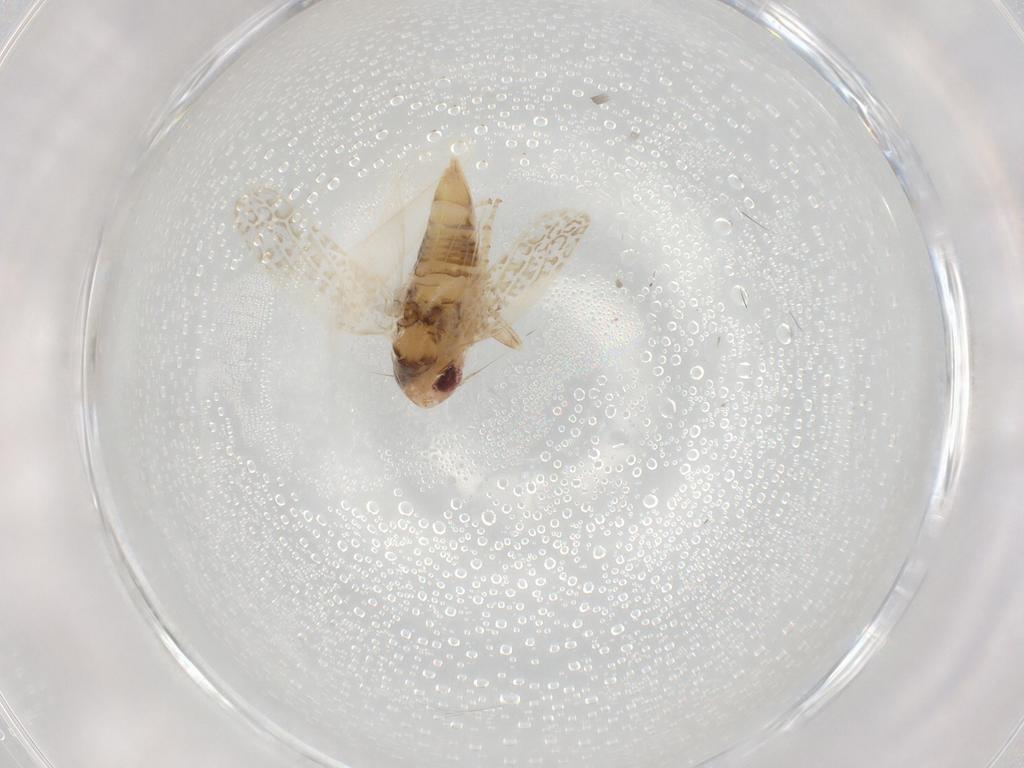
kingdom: Animalia
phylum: Arthropoda
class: Insecta
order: Hemiptera
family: Cicadellidae
